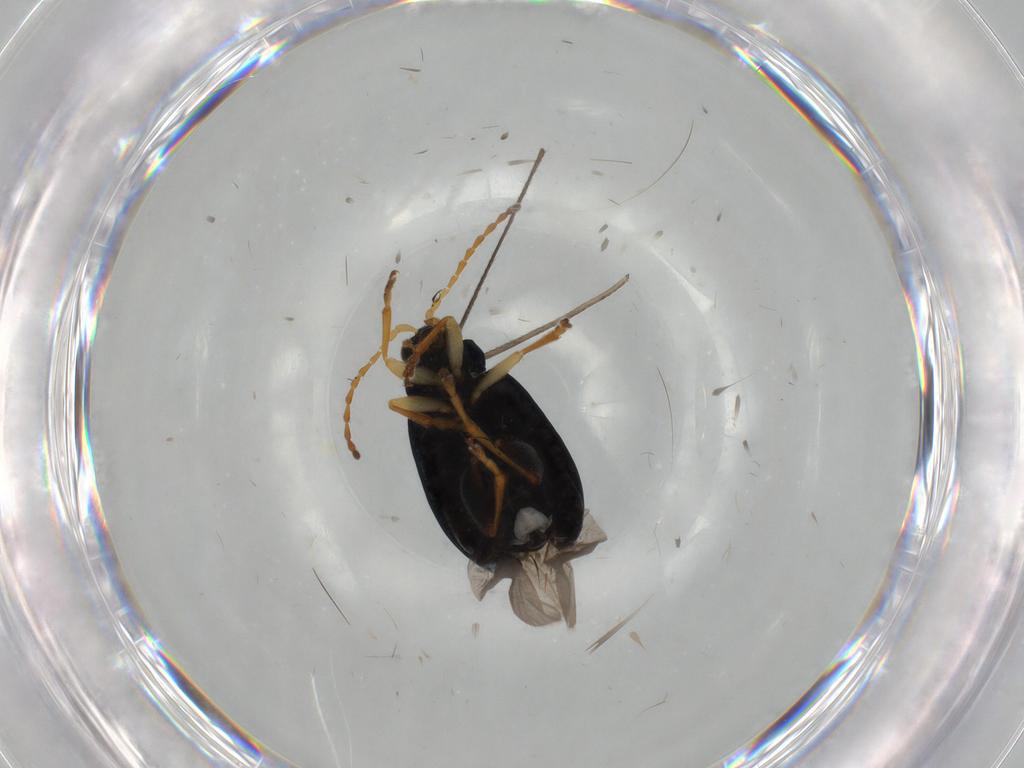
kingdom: Animalia
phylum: Arthropoda
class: Insecta
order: Coleoptera
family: Chrysomelidae
